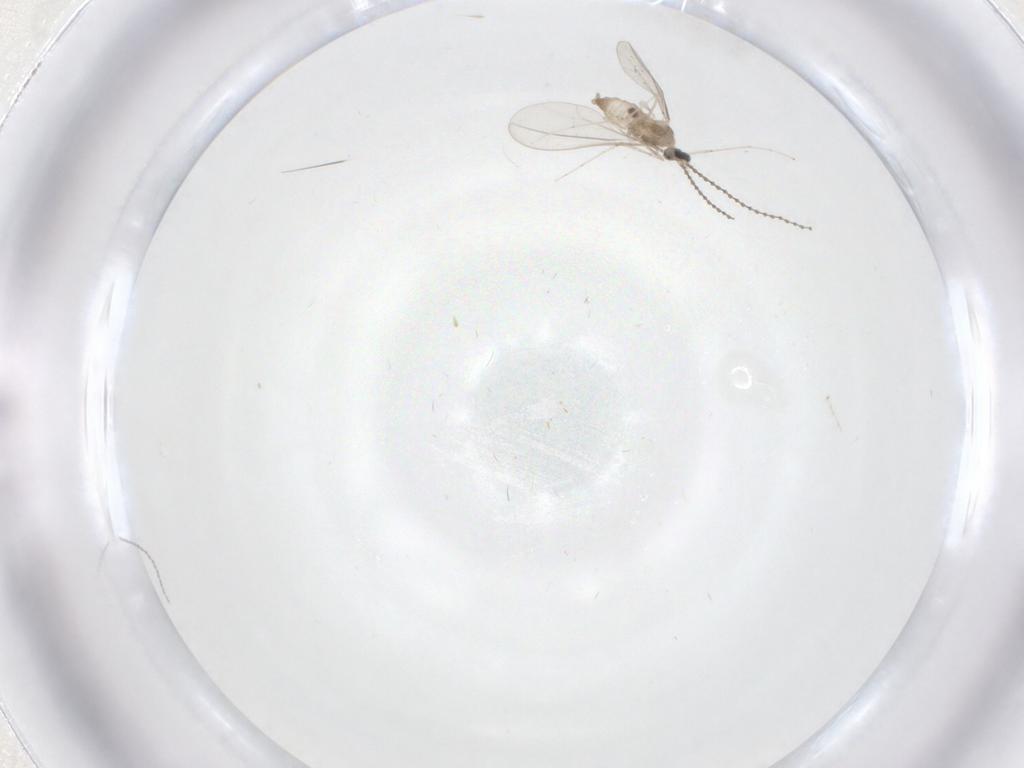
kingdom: Animalia
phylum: Arthropoda
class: Insecta
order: Diptera
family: Cecidomyiidae
